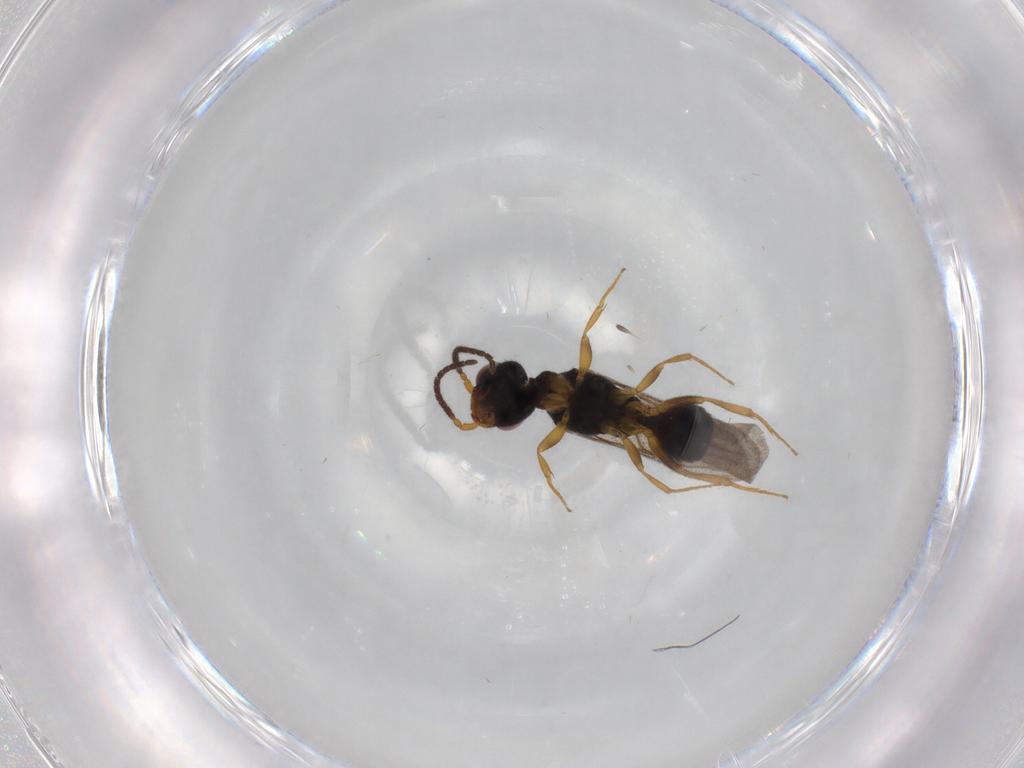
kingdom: Animalia
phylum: Arthropoda
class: Insecta
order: Hymenoptera
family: Bethylidae
